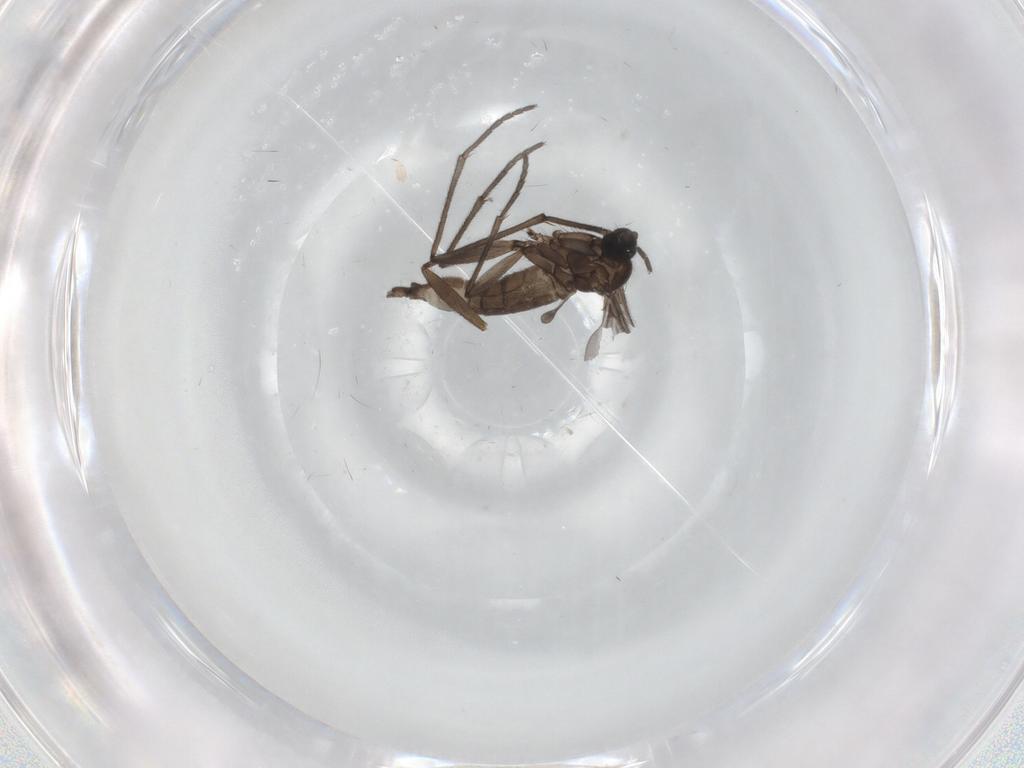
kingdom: Animalia
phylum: Arthropoda
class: Insecta
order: Diptera
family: Sciaridae
